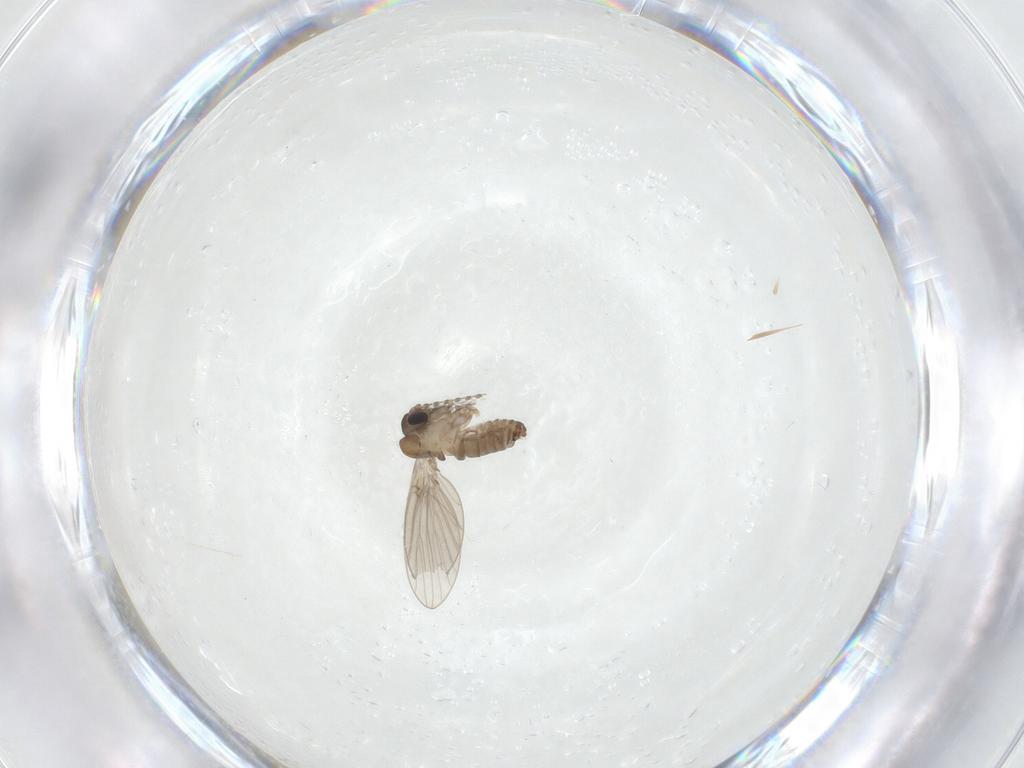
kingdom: Animalia
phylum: Arthropoda
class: Insecta
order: Diptera
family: Psychodidae
